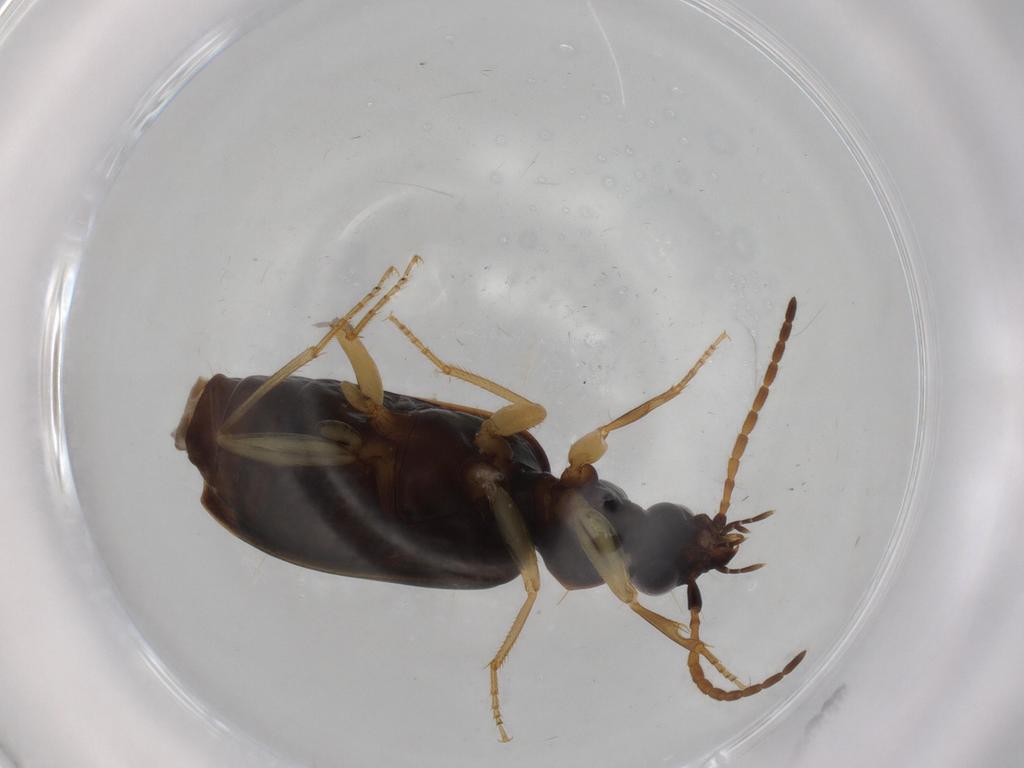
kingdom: Animalia
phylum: Arthropoda
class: Insecta
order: Coleoptera
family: Carabidae
